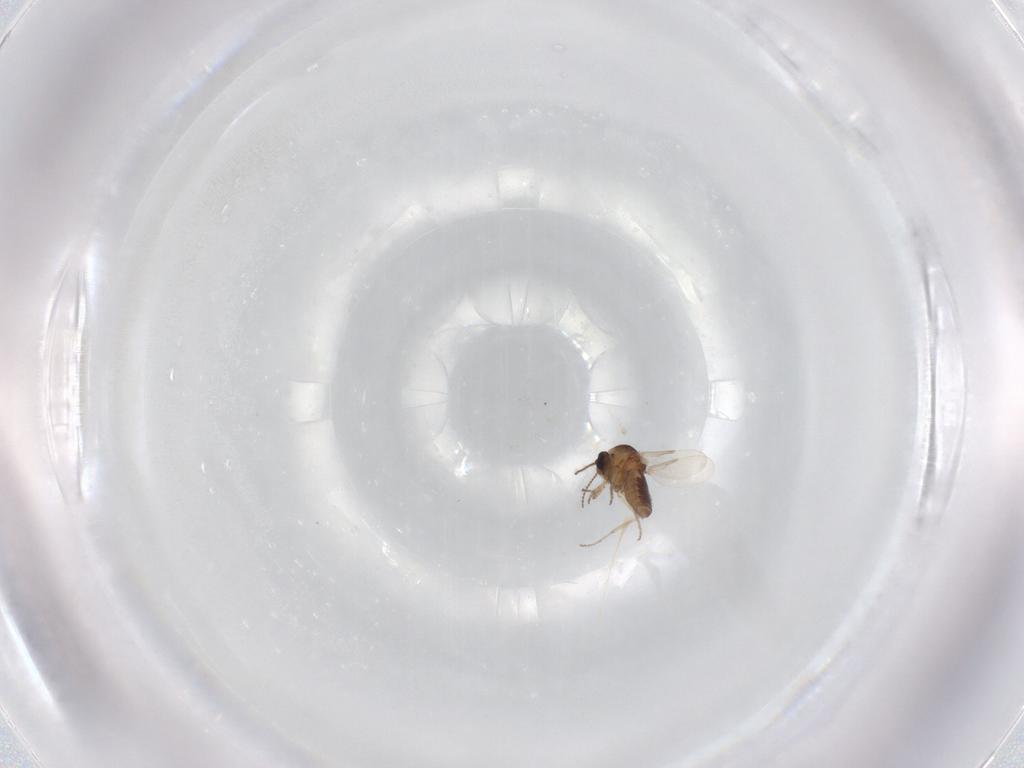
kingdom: Animalia
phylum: Arthropoda
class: Insecta
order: Diptera
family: Ceratopogonidae
